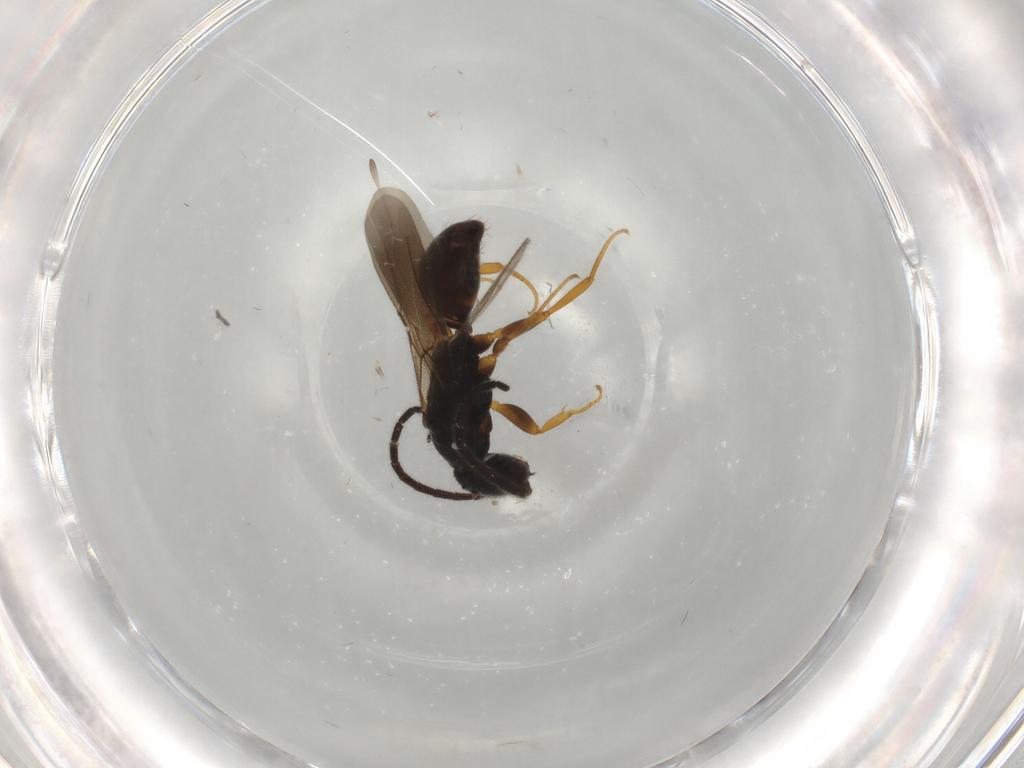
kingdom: Animalia
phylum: Arthropoda
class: Insecta
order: Hymenoptera
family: Bethylidae
